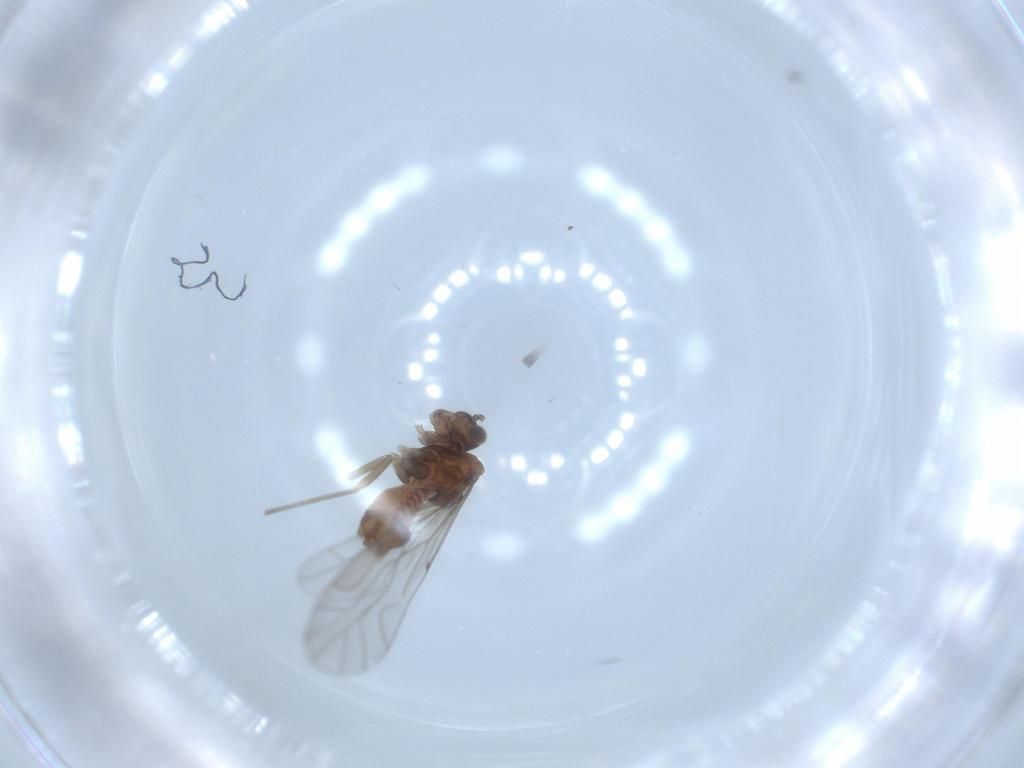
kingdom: Animalia
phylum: Arthropoda
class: Insecta
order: Psocodea
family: Lachesillidae
